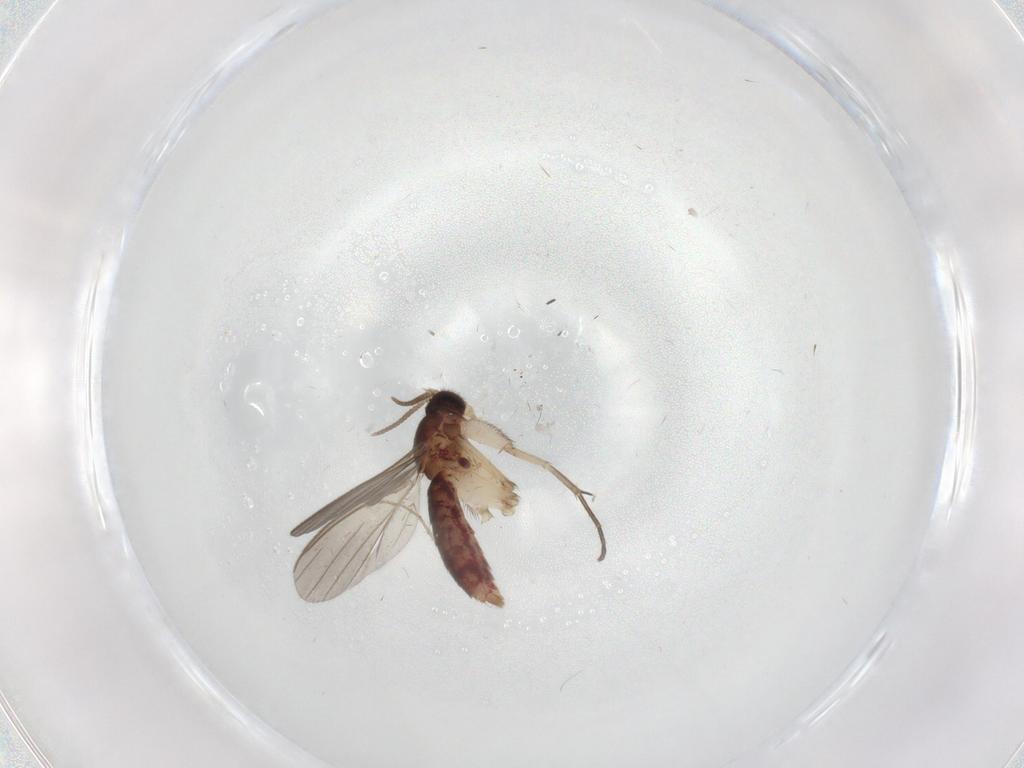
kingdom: Animalia
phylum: Arthropoda
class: Insecta
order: Diptera
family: Mycetophilidae
